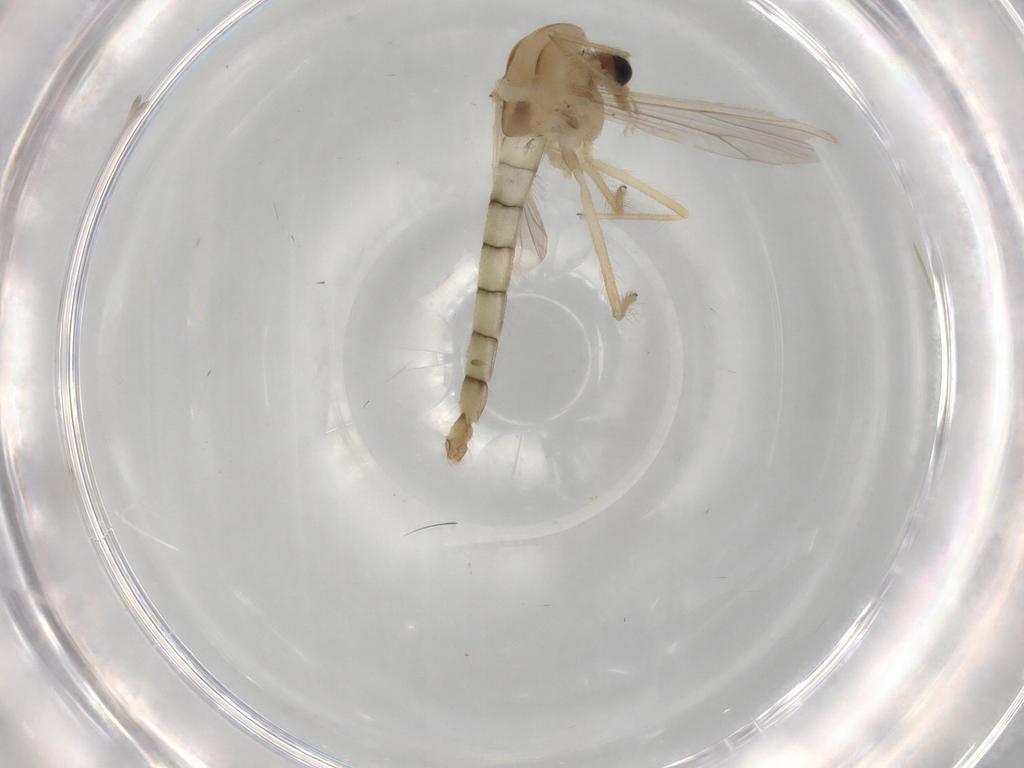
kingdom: Animalia
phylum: Arthropoda
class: Insecta
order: Diptera
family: Chironomidae
